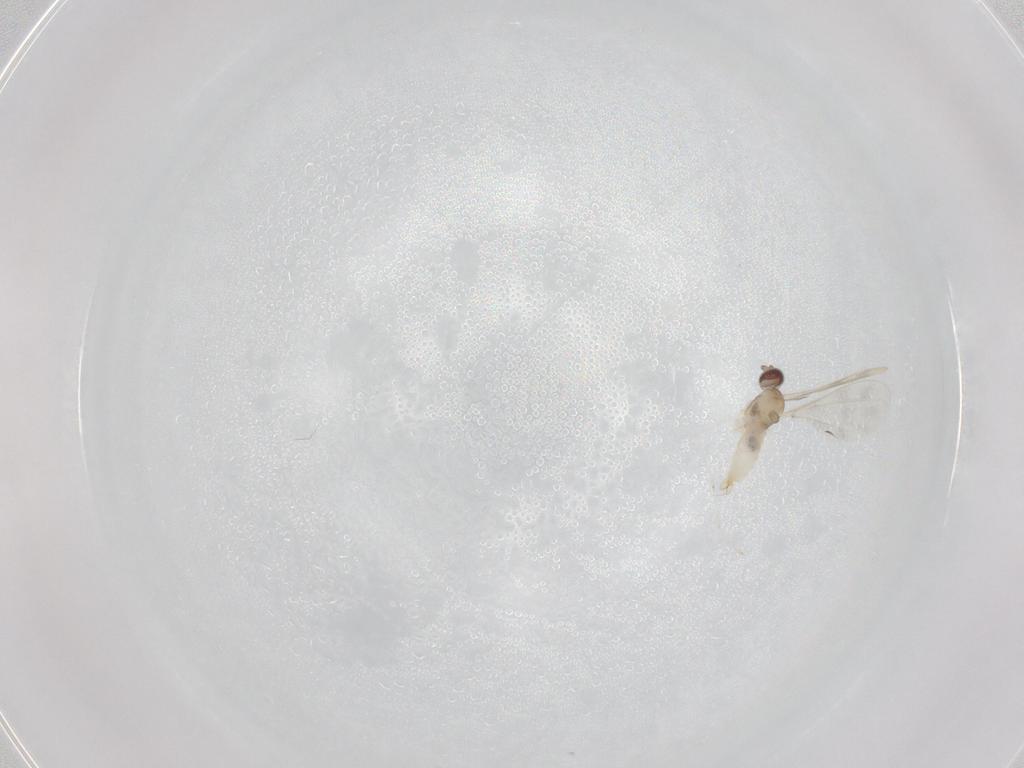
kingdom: Animalia
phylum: Arthropoda
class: Insecta
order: Diptera
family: Cecidomyiidae
